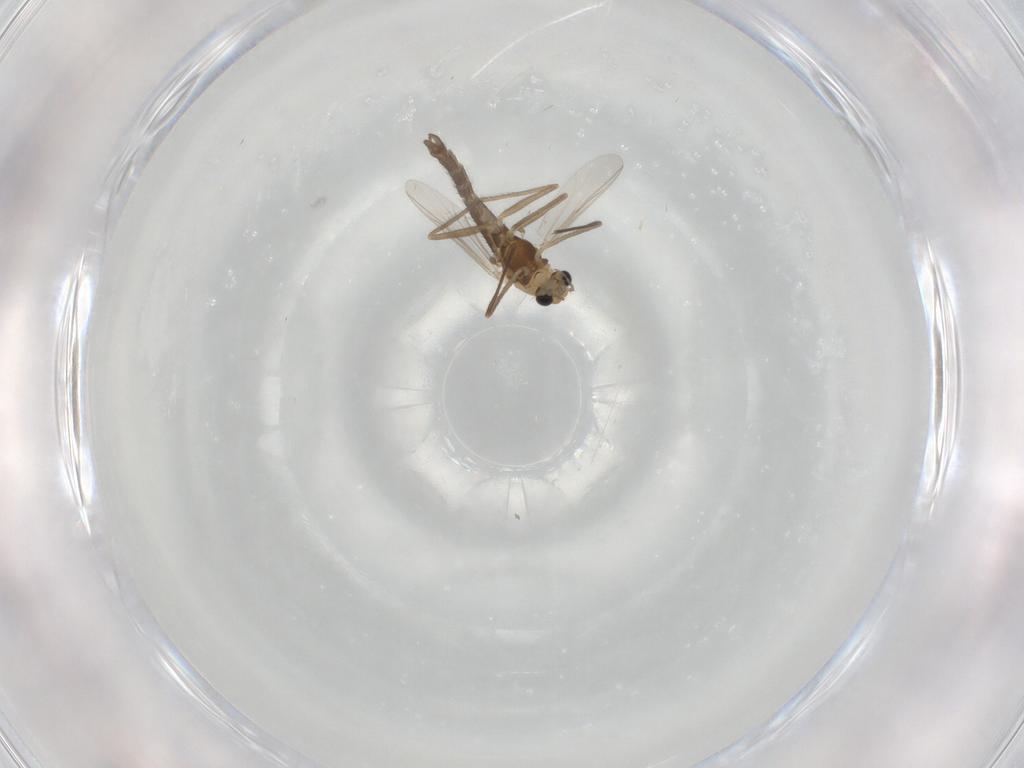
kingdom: Animalia
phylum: Arthropoda
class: Insecta
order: Diptera
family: Chironomidae
